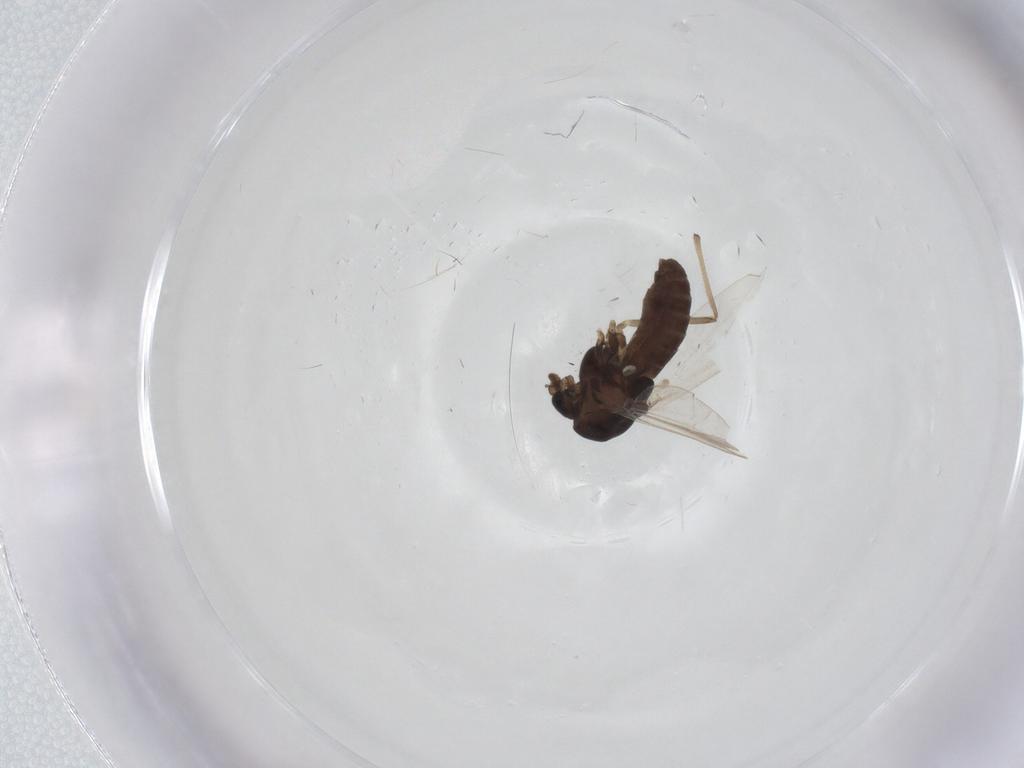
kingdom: Animalia
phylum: Arthropoda
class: Insecta
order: Diptera
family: Chironomidae
